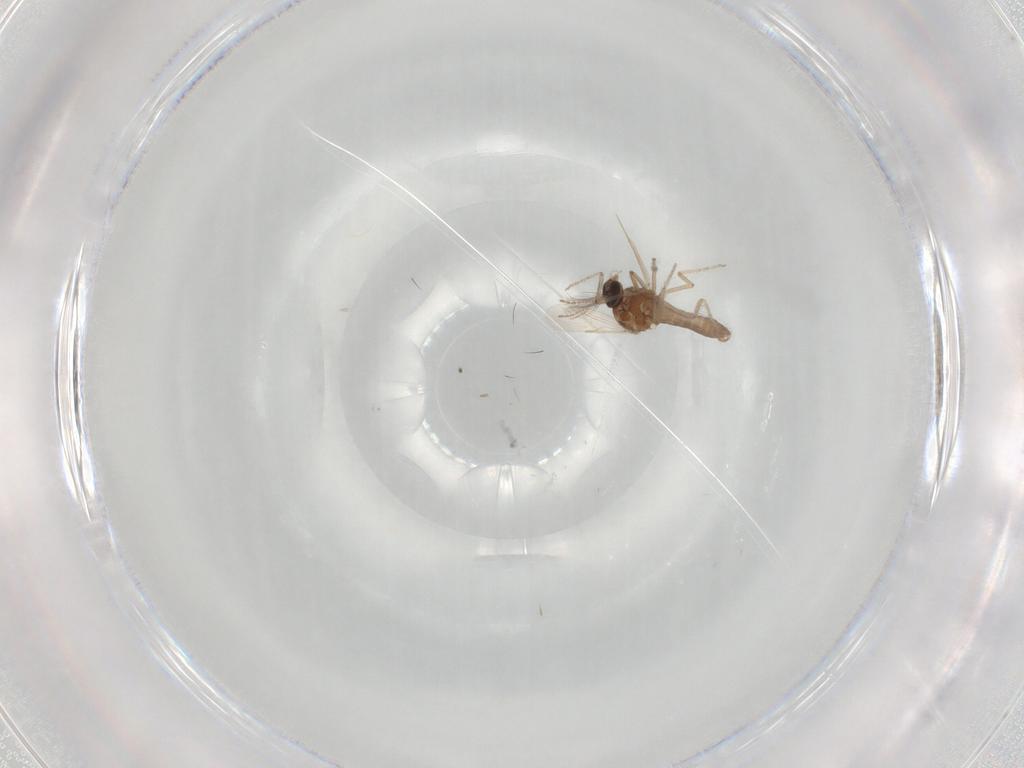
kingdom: Animalia
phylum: Arthropoda
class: Insecta
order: Diptera
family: Ceratopogonidae
